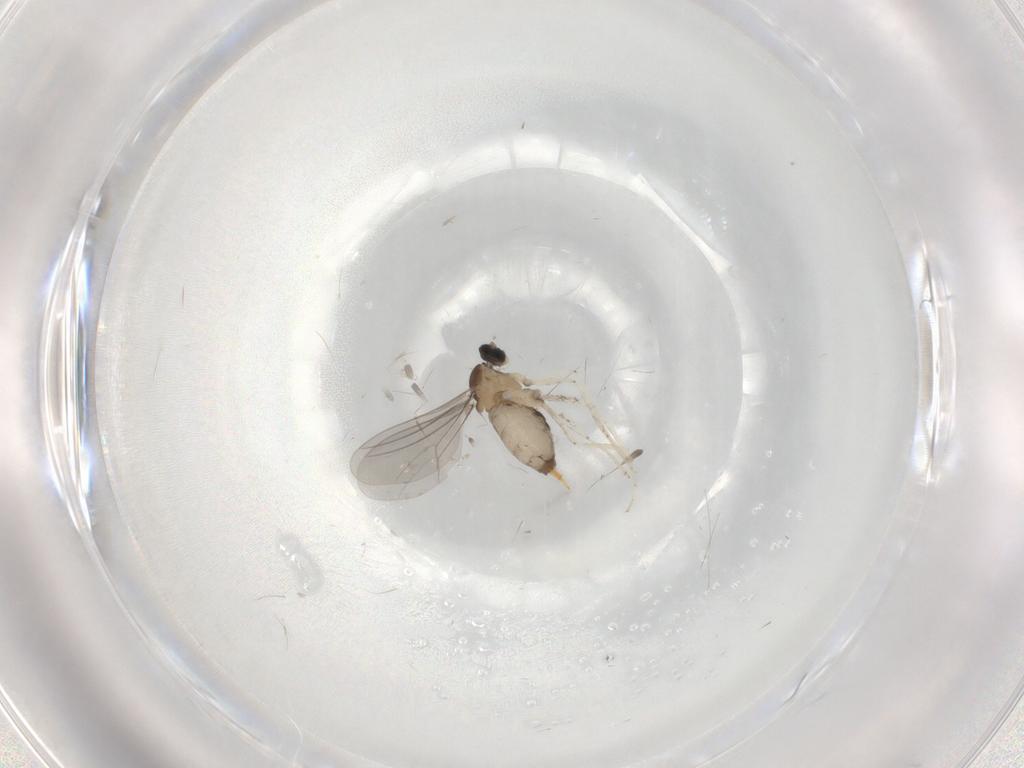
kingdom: Animalia
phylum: Arthropoda
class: Insecta
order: Diptera
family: Cecidomyiidae
